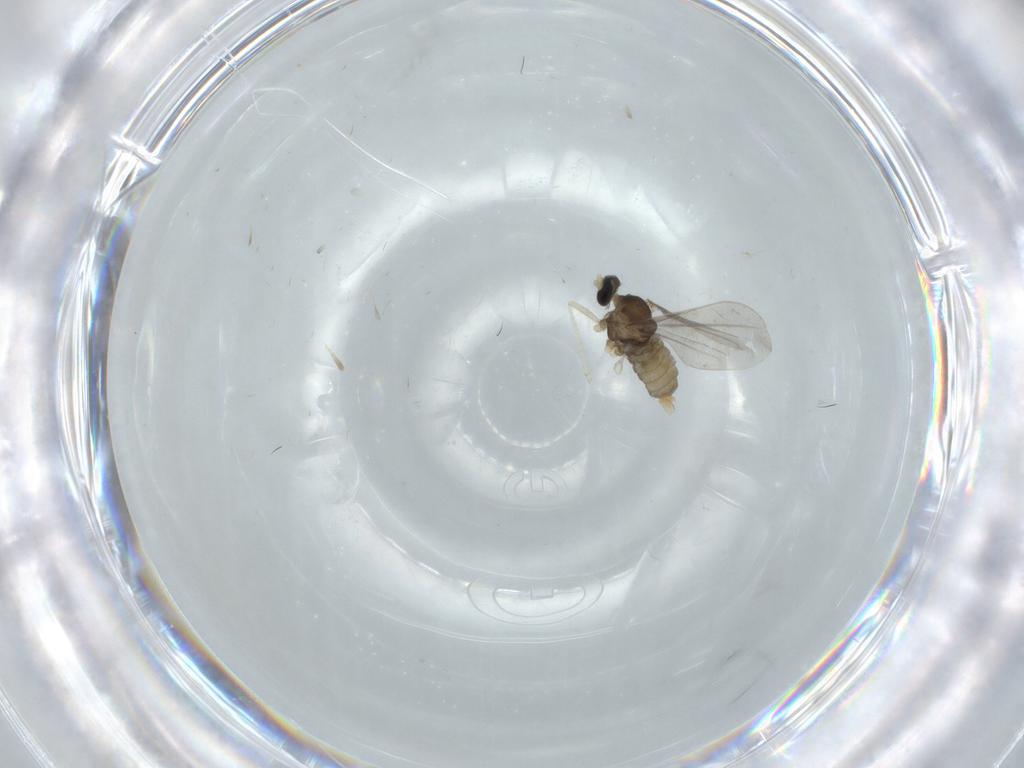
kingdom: Animalia
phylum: Arthropoda
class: Insecta
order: Diptera
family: Cecidomyiidae
